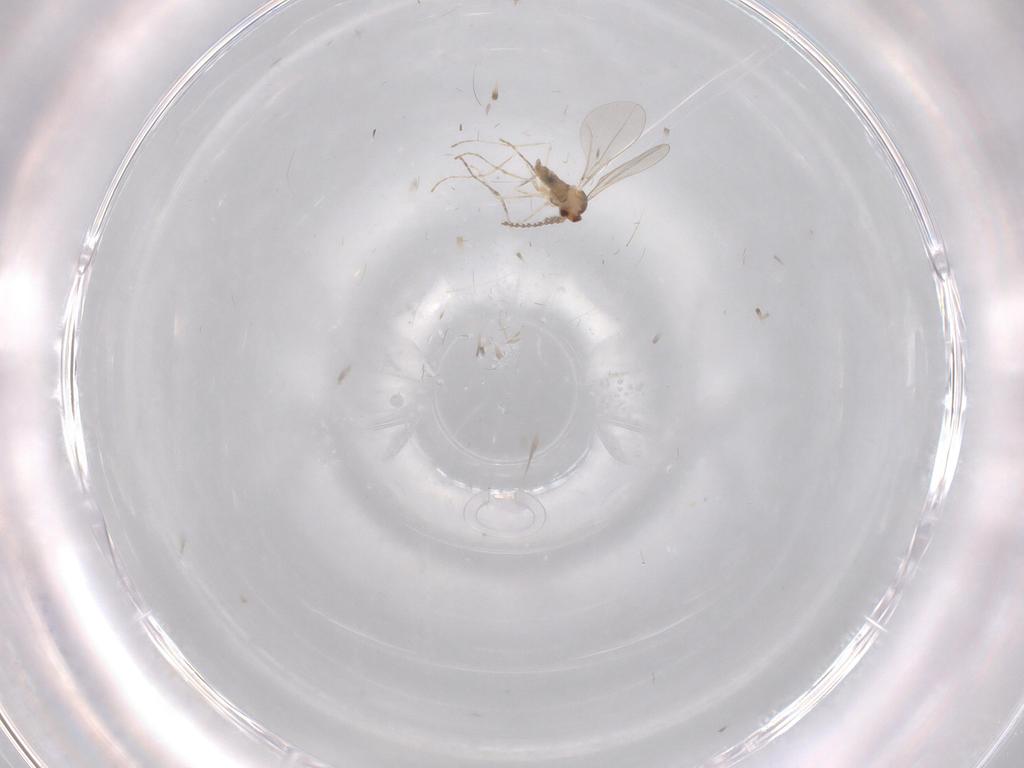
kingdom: Animalia
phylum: Arthropoda
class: Insecta
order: Diptera
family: Cecidomyiidae
